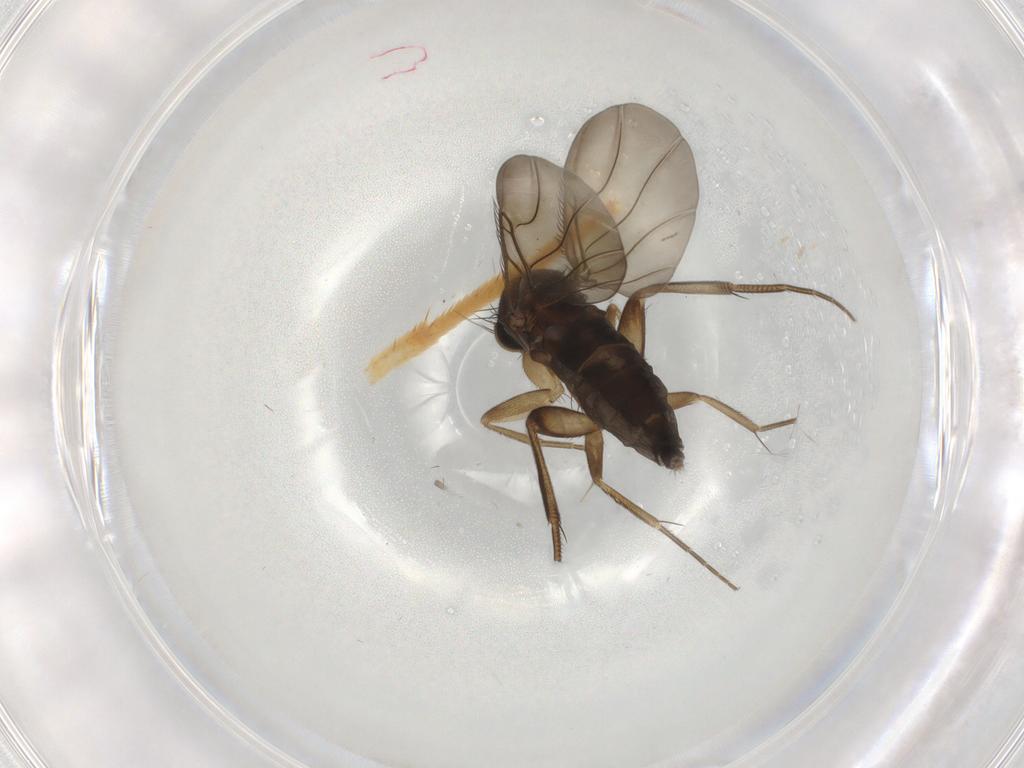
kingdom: Animalia
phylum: Arthropoda
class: Insecta
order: Diptera
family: Phoridae
